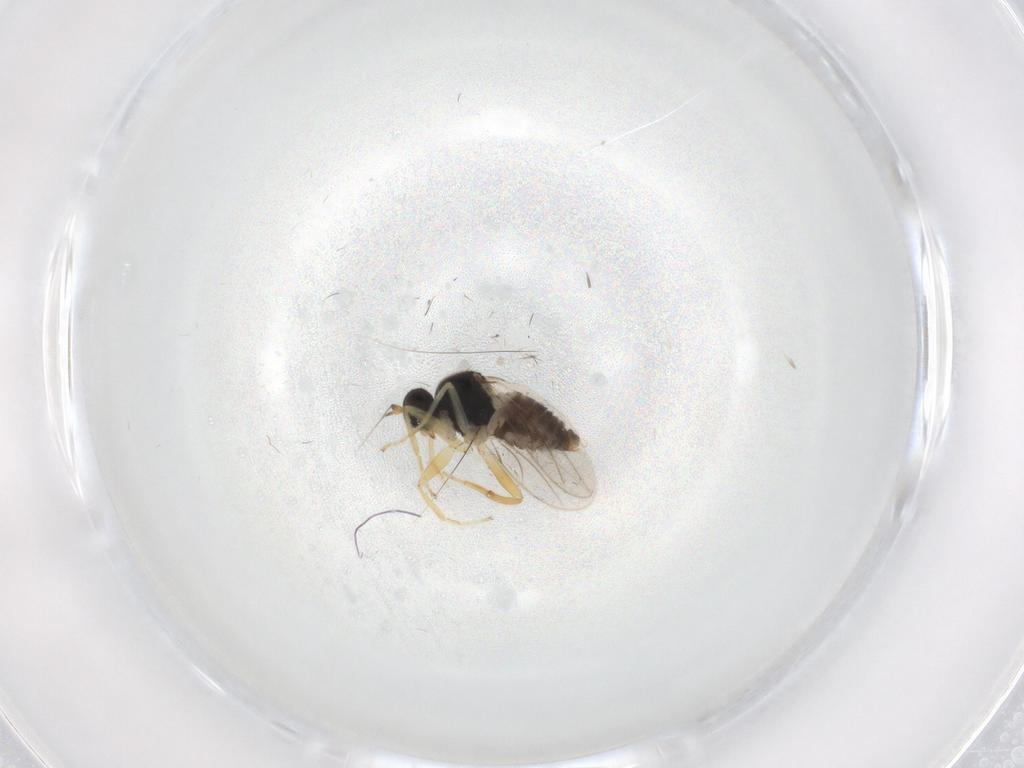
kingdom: Animalia
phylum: Arthropoda
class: Insecta
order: Diptera
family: Hybotidae
